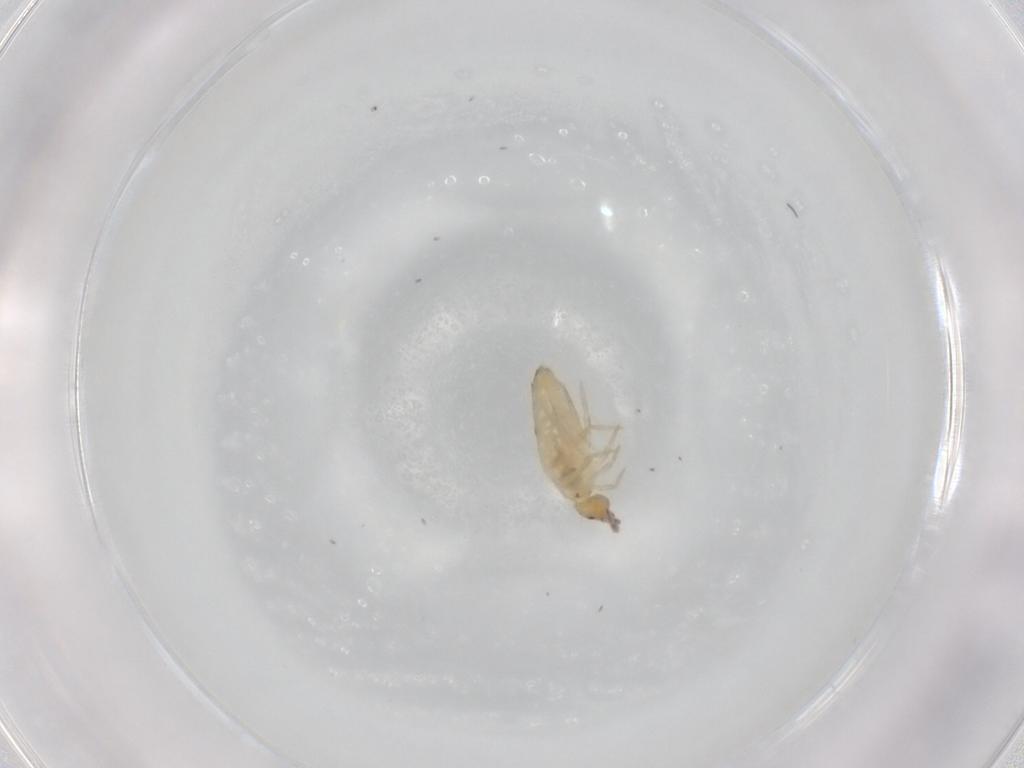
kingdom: Animalia
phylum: Arthropoda
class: Collembola
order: Entomobryomorpha
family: Entomobryidae
